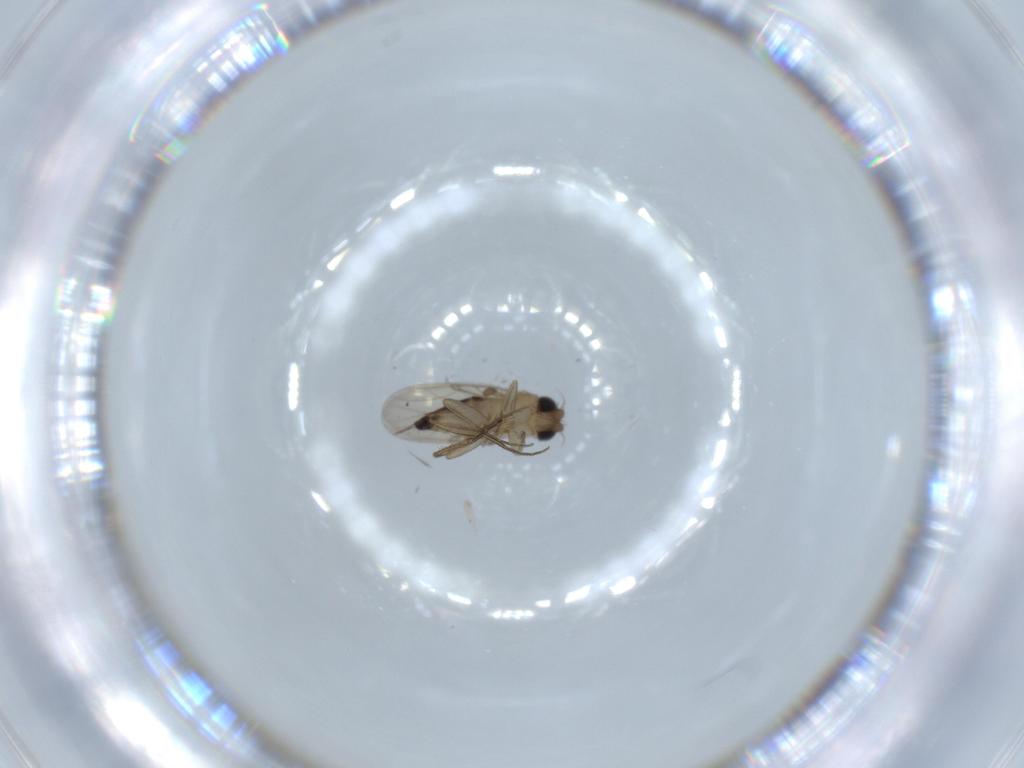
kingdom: Animalia
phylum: Arthropoda
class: Insecta
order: Diptera
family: Phoridae
